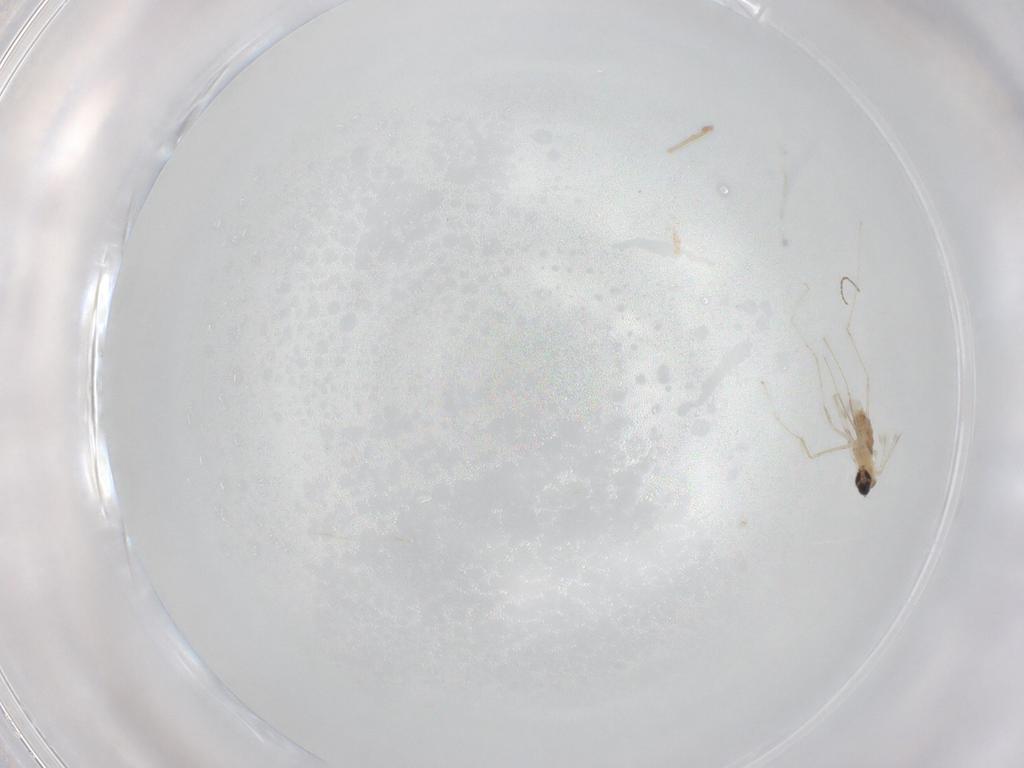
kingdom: Animalia
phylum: Arthropoda
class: Insecta
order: Diptera
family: Cecidomyiidae
